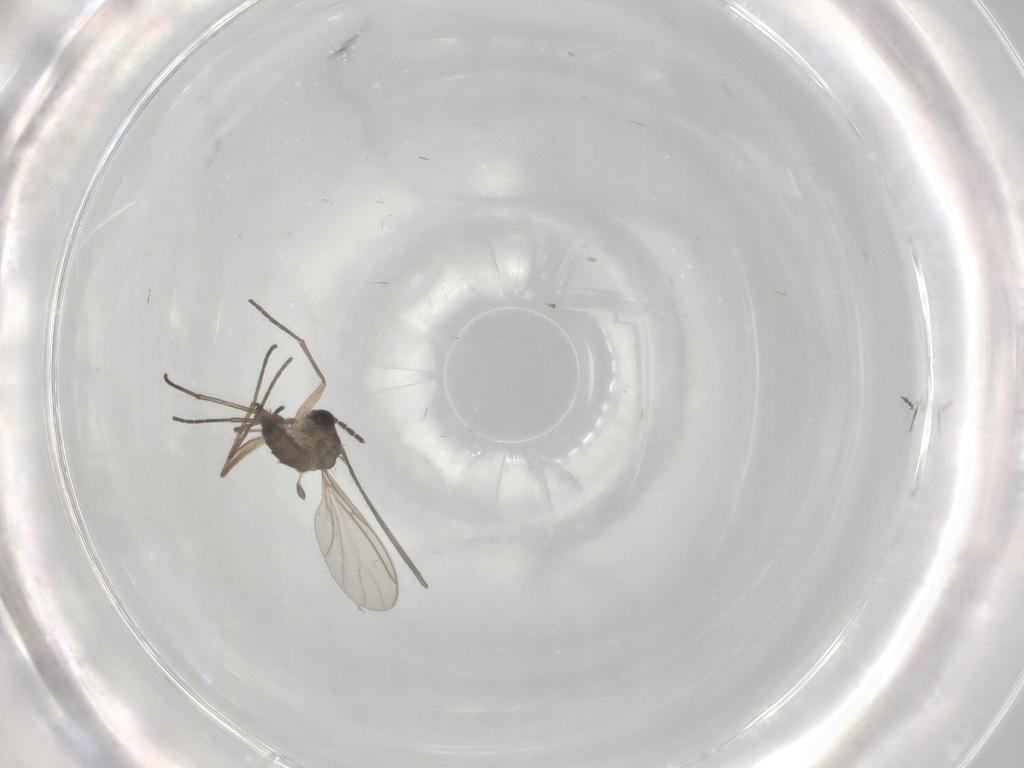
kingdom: Animalia
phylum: Arthropoda
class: Insecta
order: Diptera
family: Sciaridae
